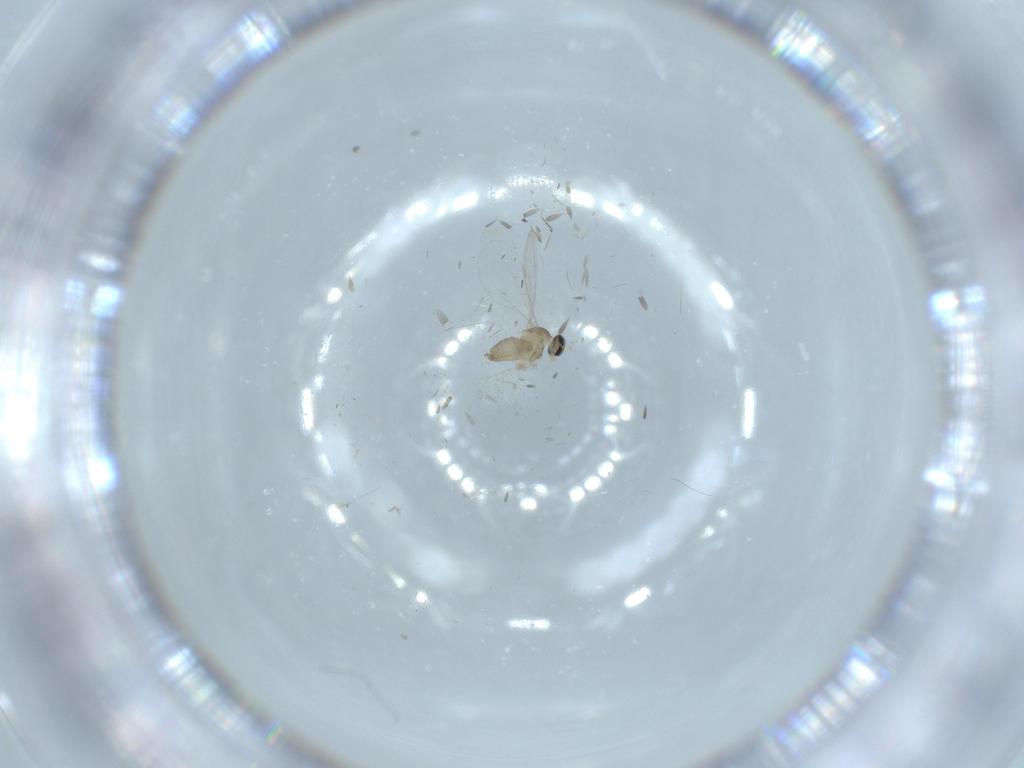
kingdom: Animalia
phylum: Arthropoda
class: Insecta
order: Diptera
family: Cecidomyiidae
